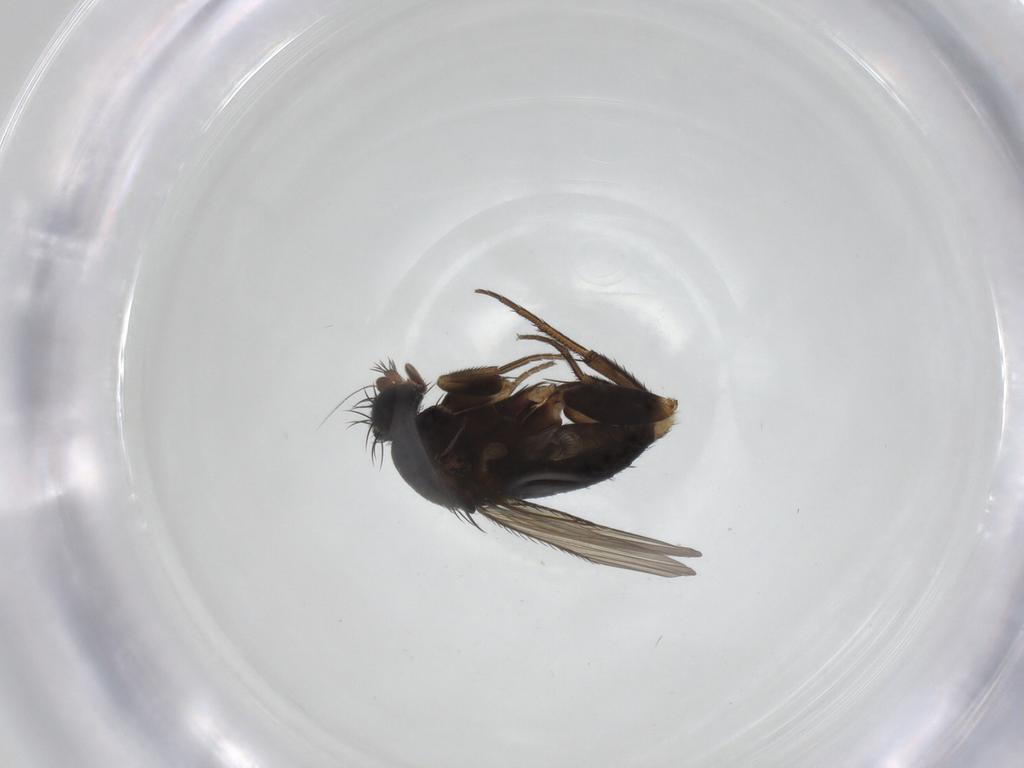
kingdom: Animalia
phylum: Arthropoda
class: Insecta
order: Diptera
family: Phoridae
